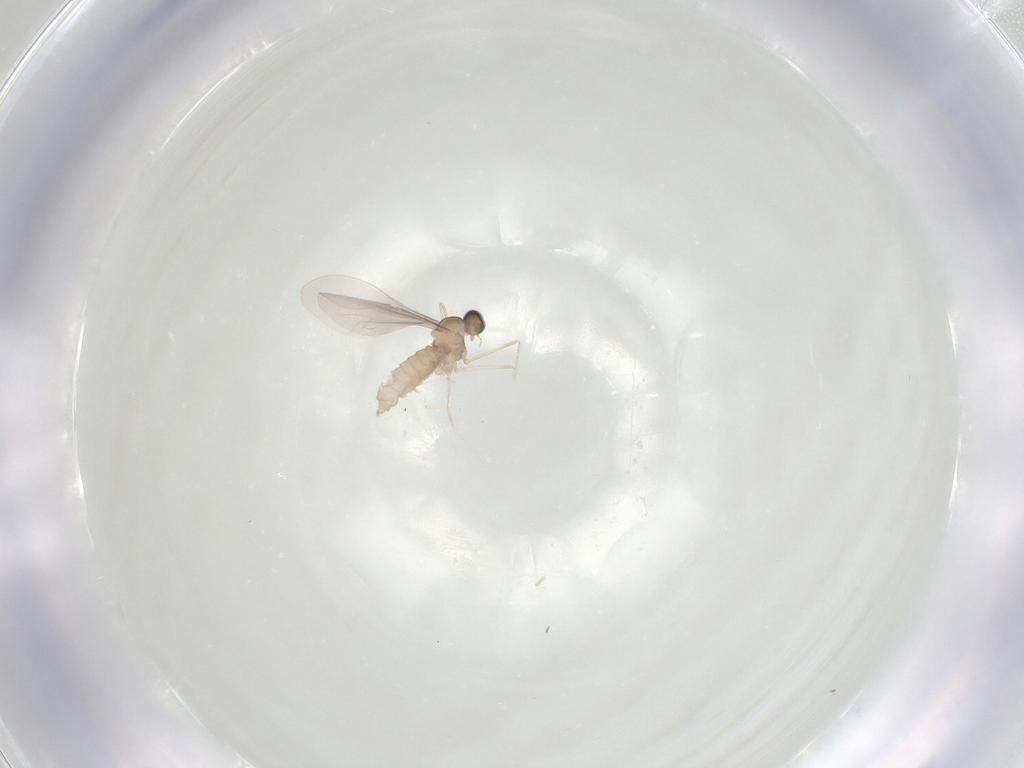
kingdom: Animalia
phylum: Arthropoda
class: Insecta
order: Diptera
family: Cecidomyiidae
